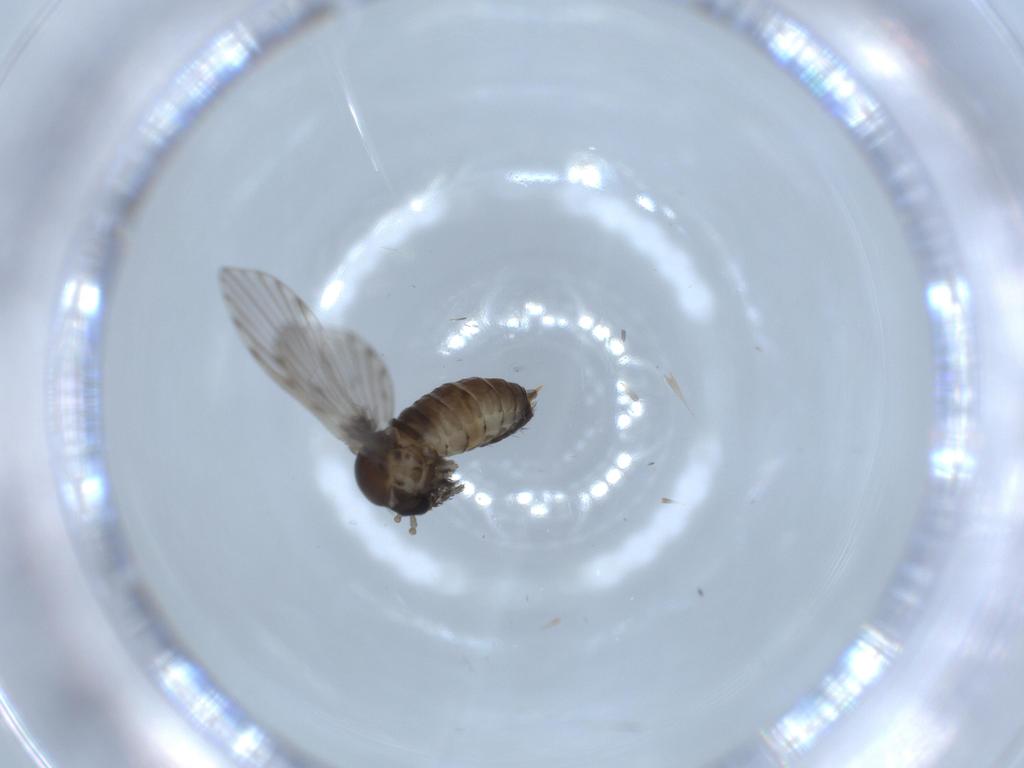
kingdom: Animalia
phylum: Arthropoda
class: Insecta
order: Diptera
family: Psychodidae
